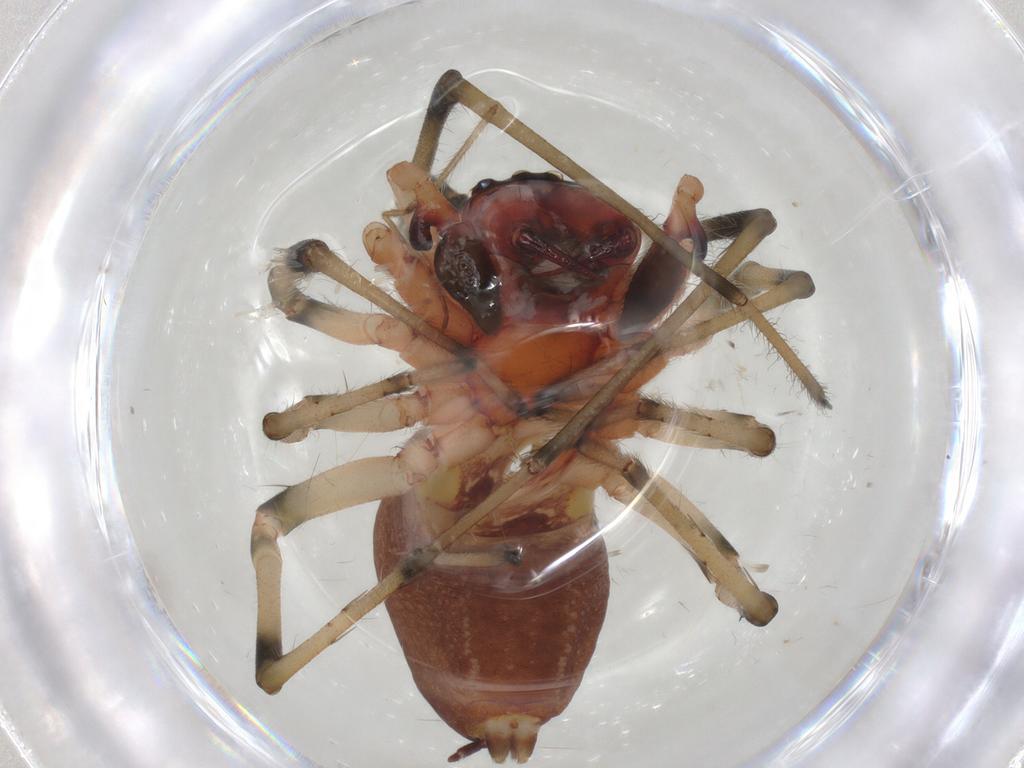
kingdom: Animalia
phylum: Arthropoda
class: Arachnida
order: Araneae
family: Cheiracanthiidae
